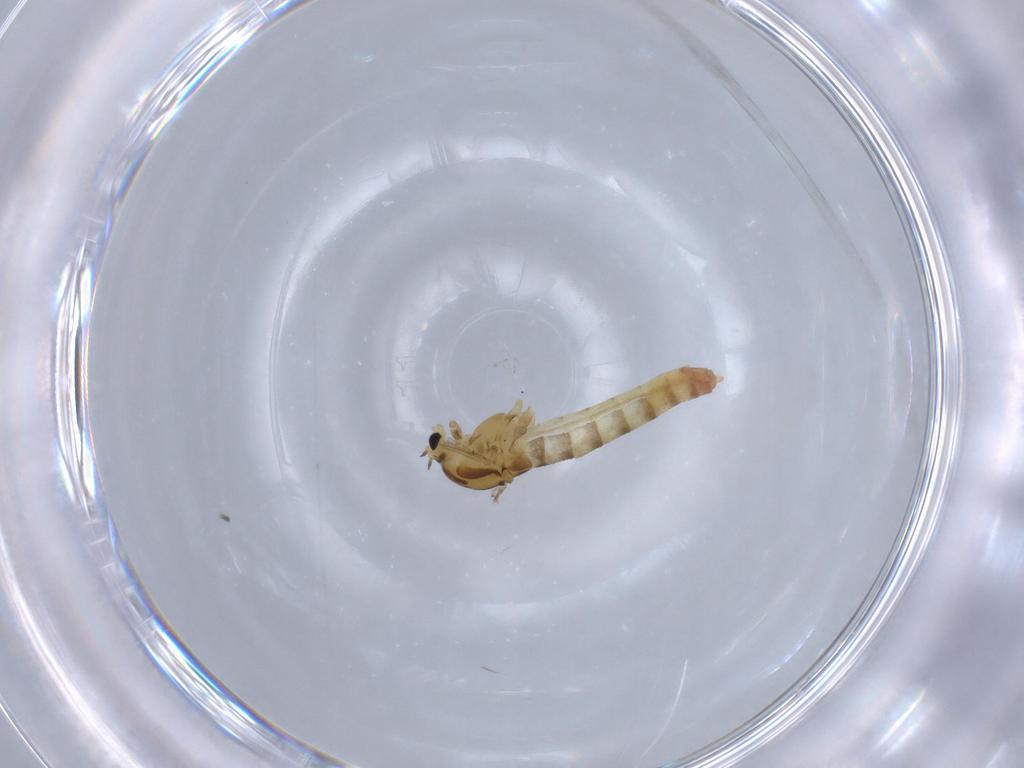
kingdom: Animalia
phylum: Arthropoda
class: Insecta
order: Diptera
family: Chironomidae
